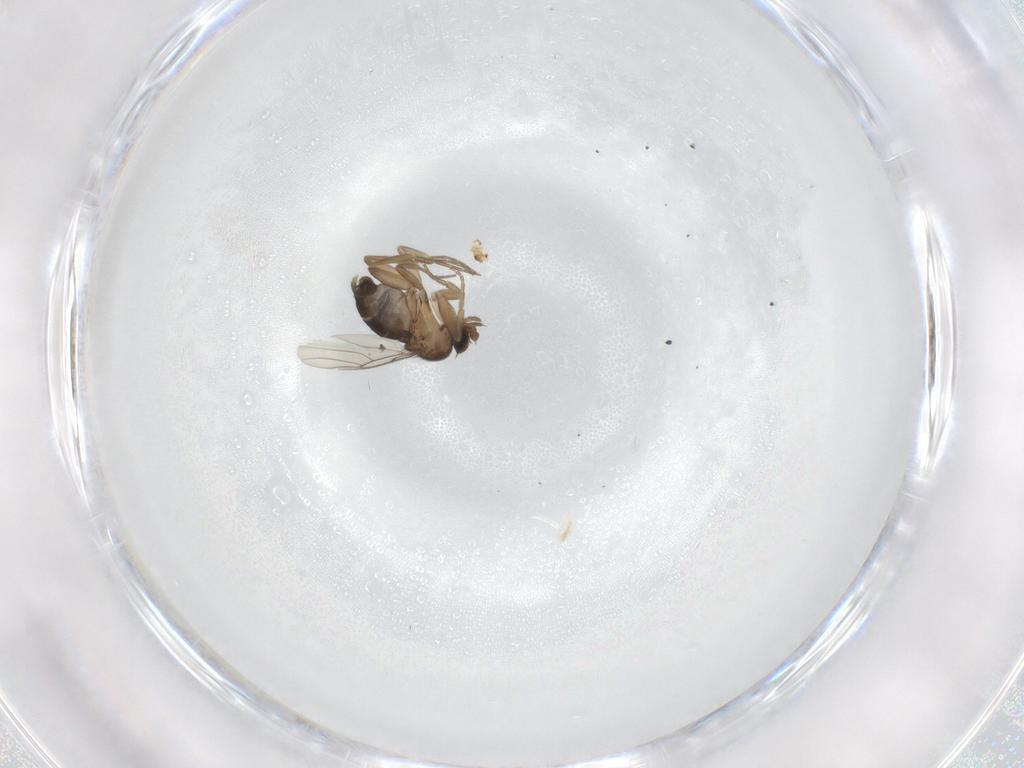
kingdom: Animalia
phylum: Arthropoda
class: Insecta
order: Diptera
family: Phoridae
